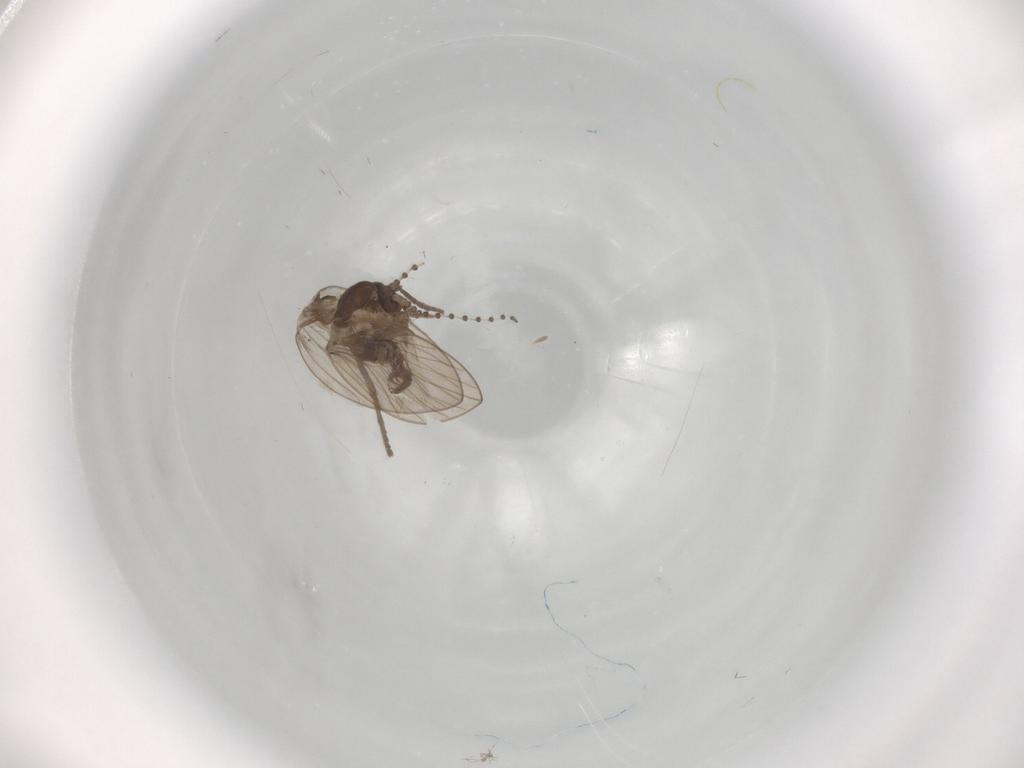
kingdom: Animalia
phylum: Arthropoda
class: Insecta
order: Diptera
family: Psychodidae
